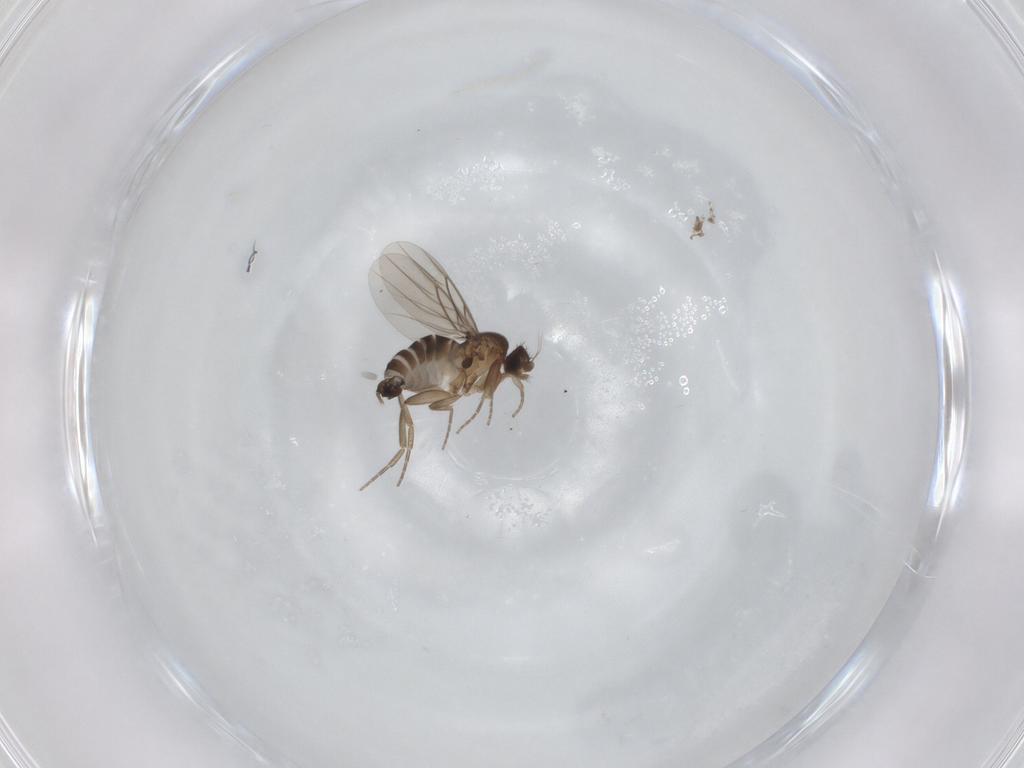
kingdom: Animalia
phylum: Arthropoda
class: Insecta
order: Diptera
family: Phoridae
